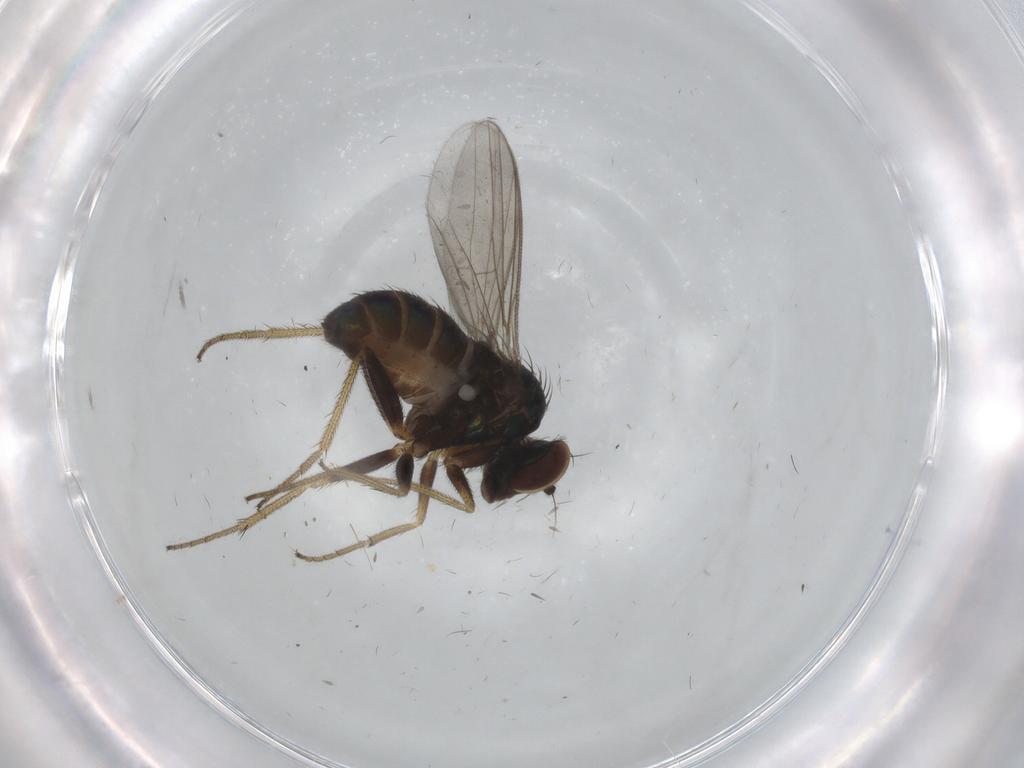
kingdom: Animalia
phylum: Arthropoda
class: Insecta
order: Diptera
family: Dolichopodidae
